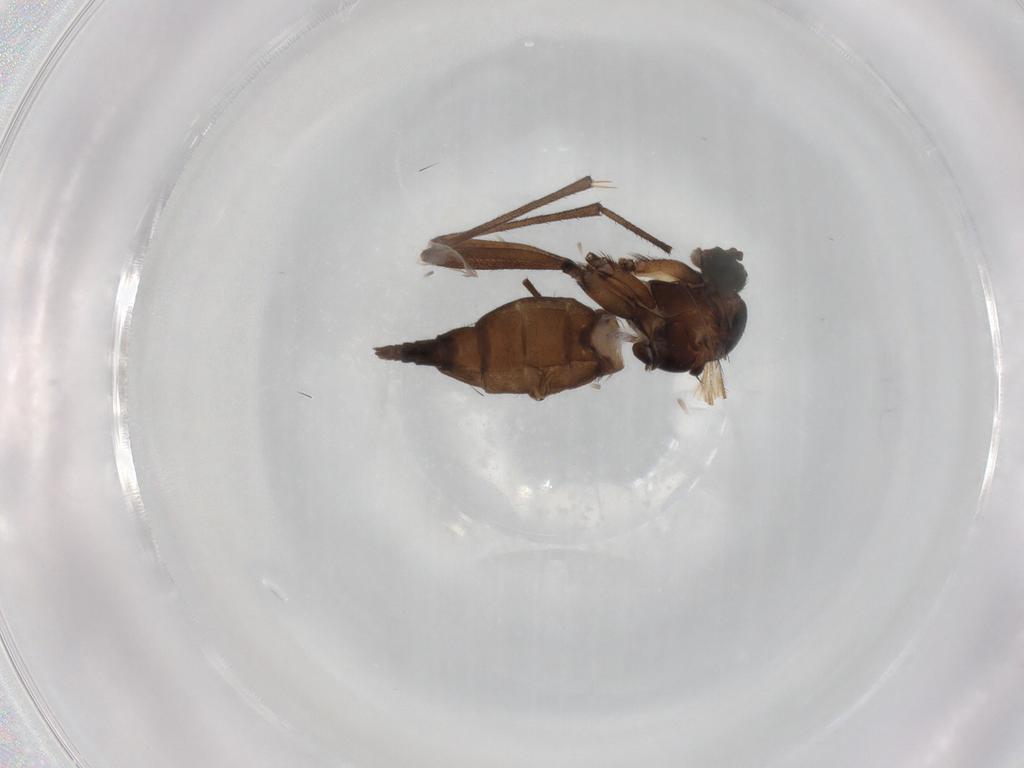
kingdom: Animalia
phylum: Arthropoda
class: Insecta
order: Diptera
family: Sciaridae
